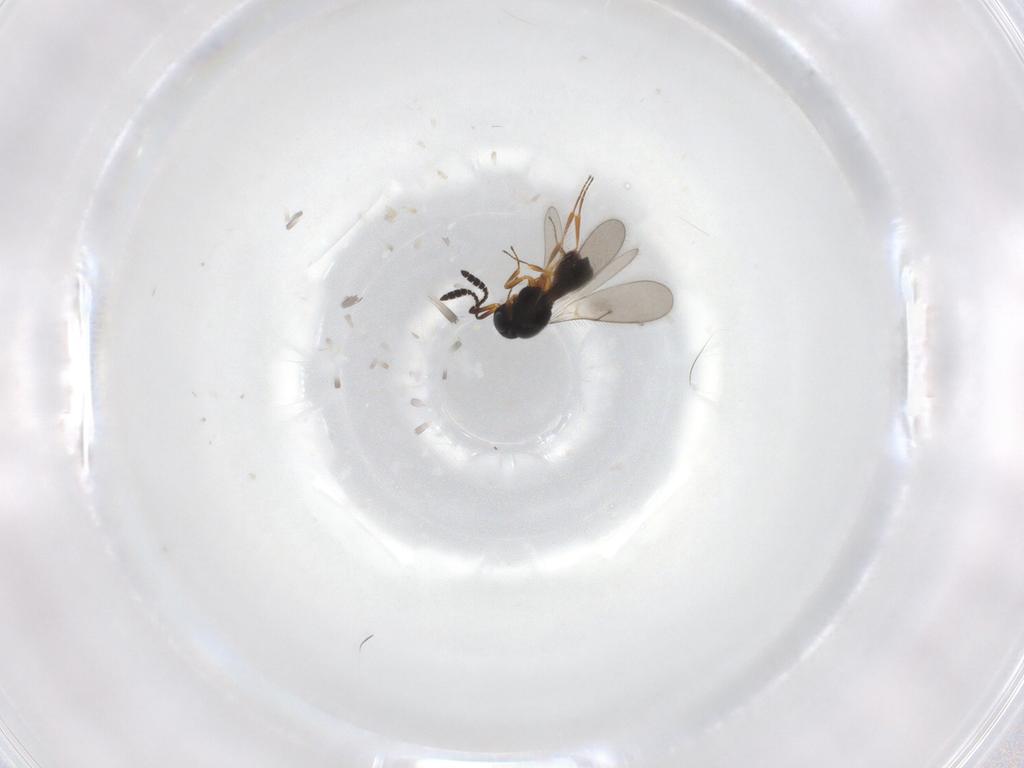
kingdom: Animalia
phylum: Arthropoda
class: Insecta
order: Hymenoptera
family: Scelionidae
